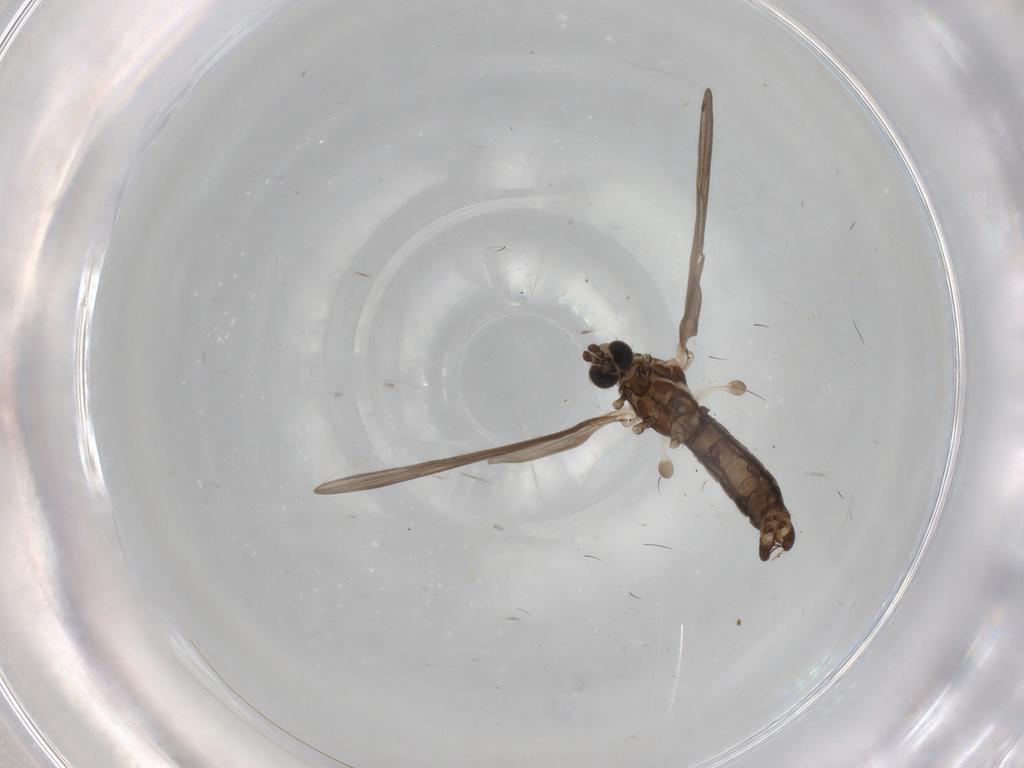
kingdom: Animalia
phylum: Arthropoda
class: Insecta
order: Diptera
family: Limoniidae
